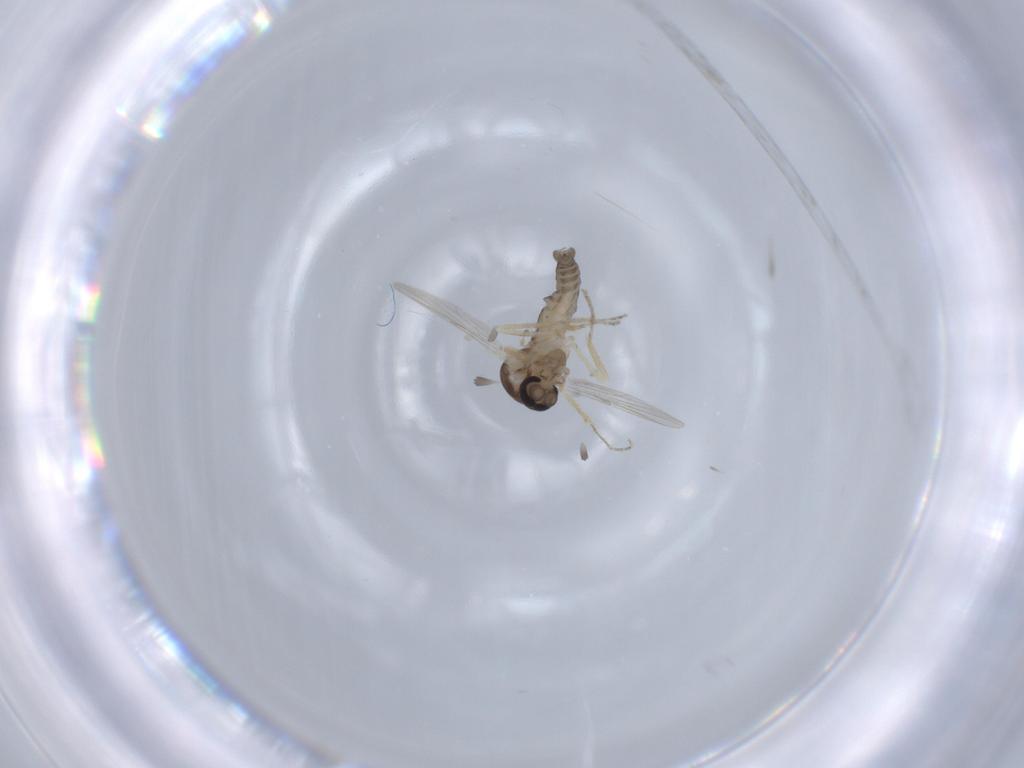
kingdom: Animalia
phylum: Arthropoda
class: Insecta
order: Diptera
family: Ceratopogonidae
